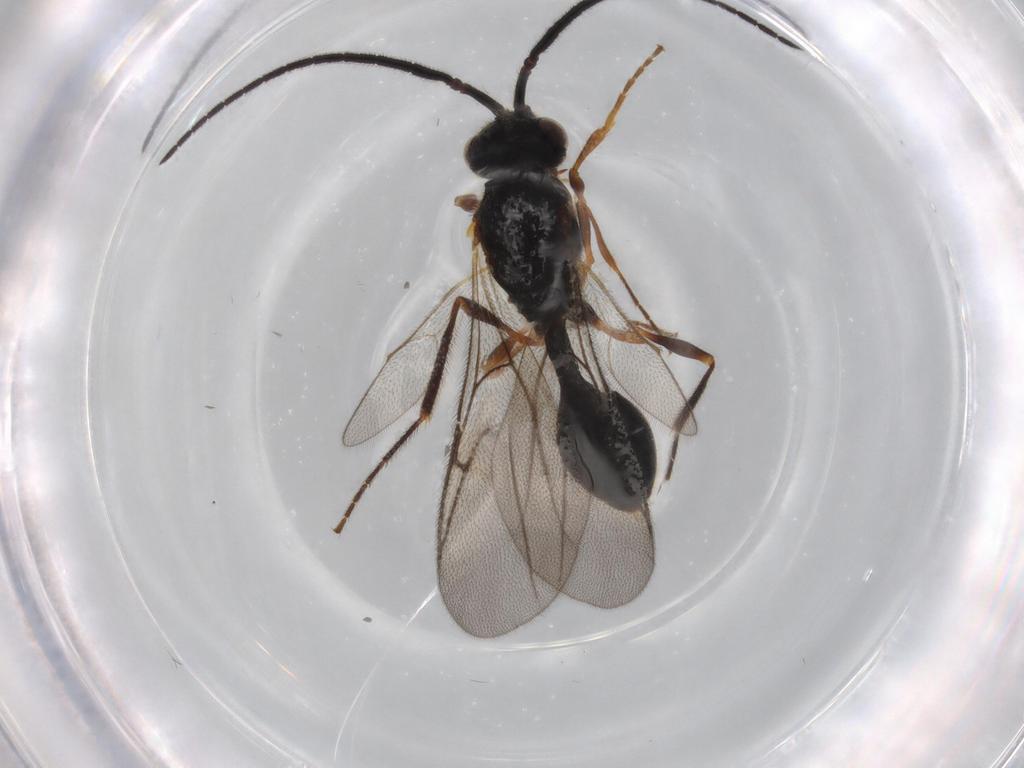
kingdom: Animalia
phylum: Arthropoda
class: Insecta
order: Hymenoptera
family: Diapriidae
